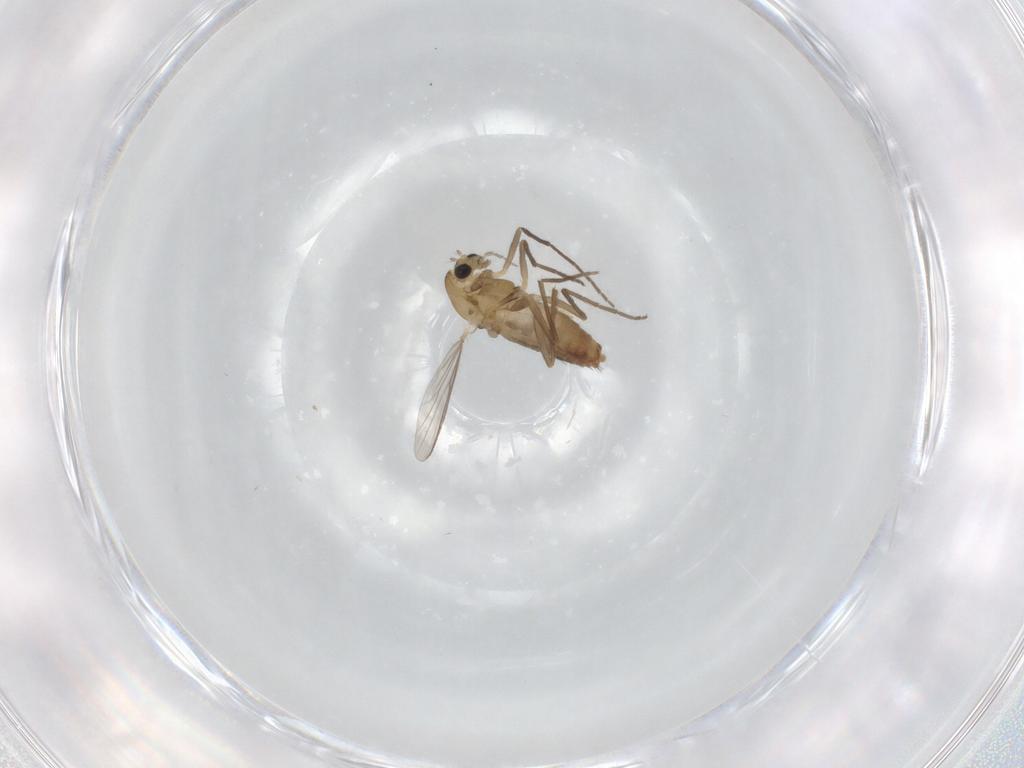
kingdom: Animalia
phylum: Arthropoda
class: Insecta
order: Diptera
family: Chironomidae
